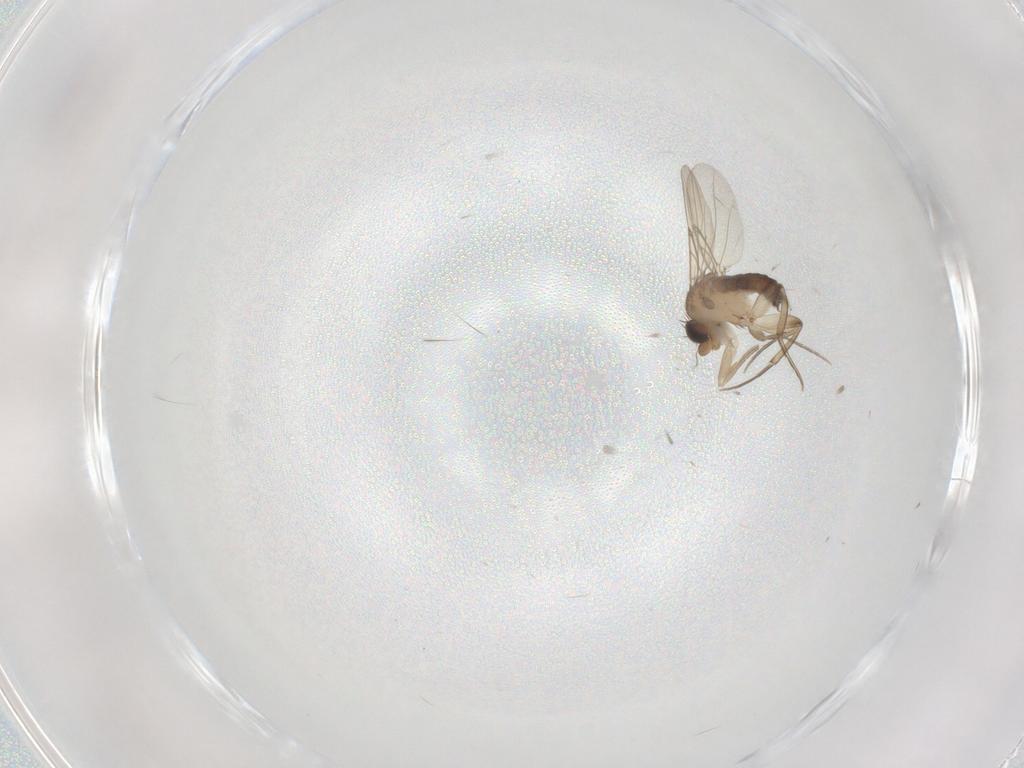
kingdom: Animalia
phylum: Arthropoda
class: Insecta
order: Diptera
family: Phoridae
